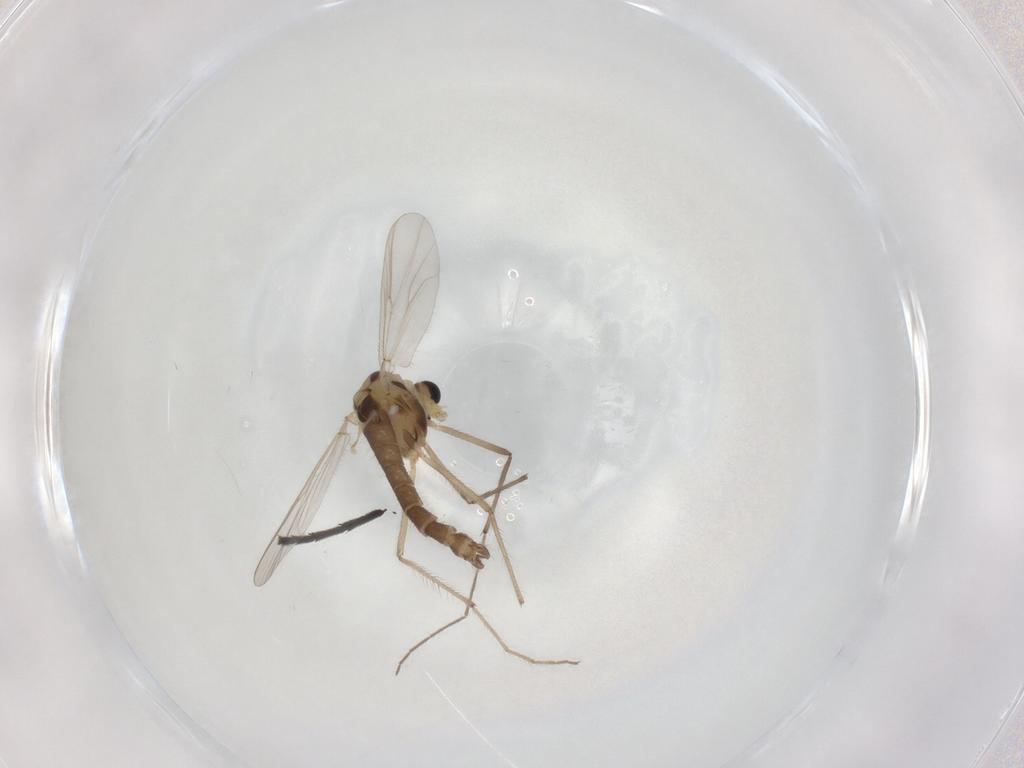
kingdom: Animalia
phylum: Arthropoda
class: Insecta
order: Diptera
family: Chironomidae
